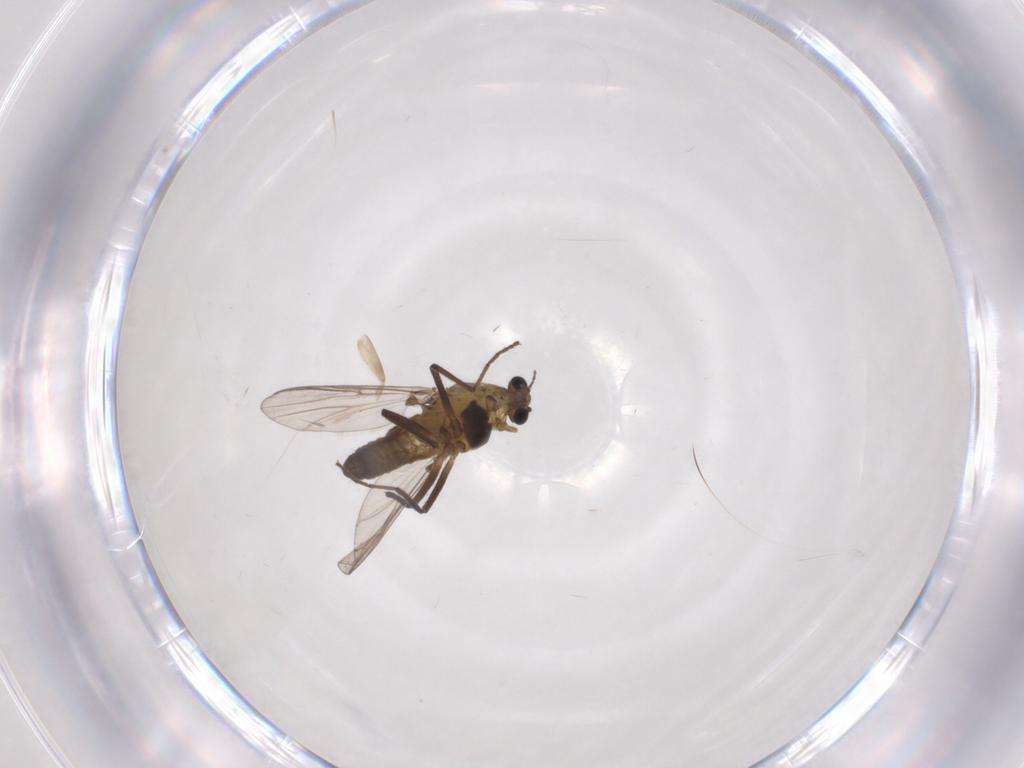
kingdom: Animalia
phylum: Arthropoda
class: Insecta
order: Diptera
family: Chironomidae
